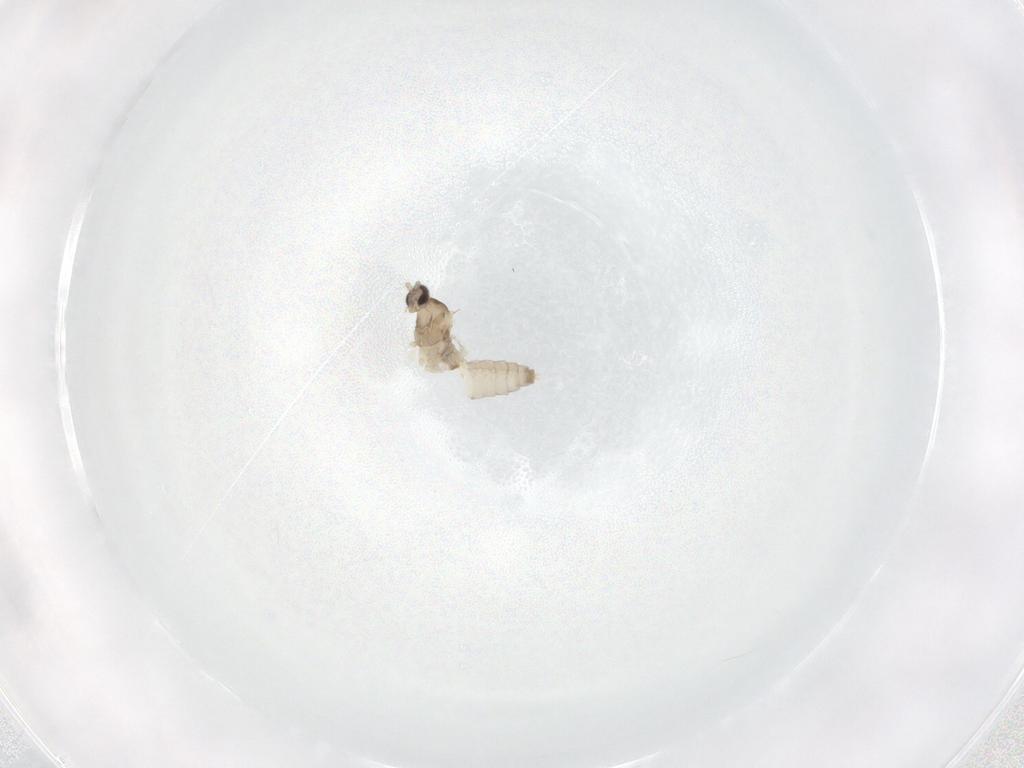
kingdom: Animalia
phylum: Arthropoda
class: Insecta
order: Diptera
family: Cecidomyiidae
